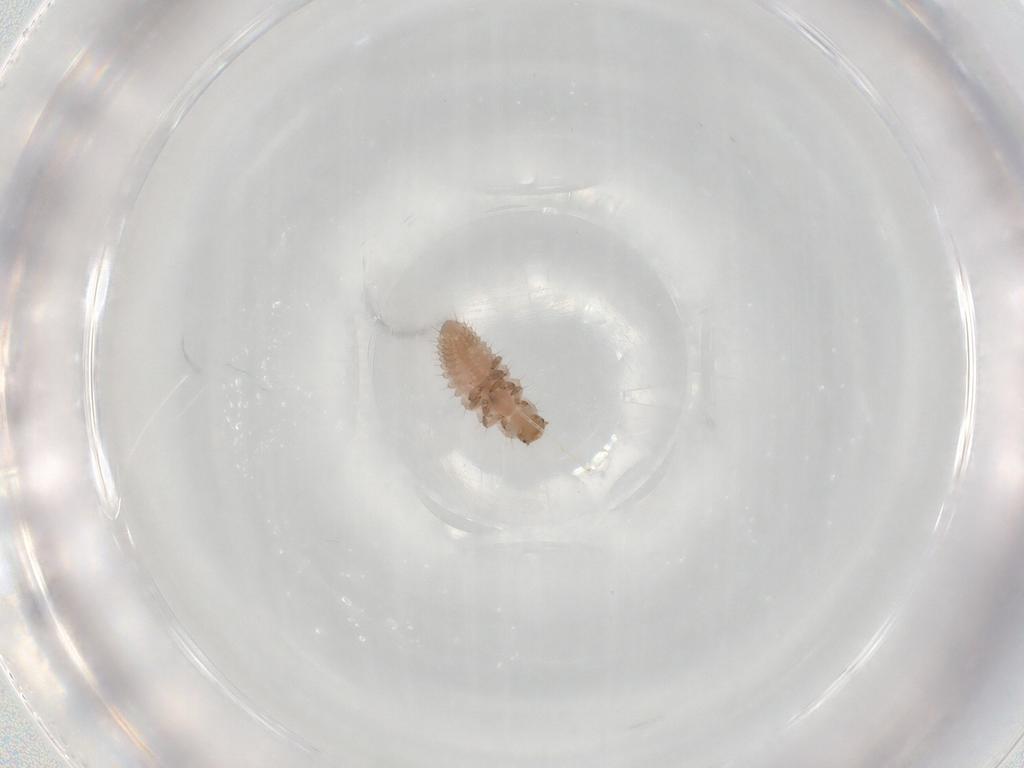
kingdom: Animalia
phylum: Arthropoda
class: Insecta
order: Coleoptera
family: Coccinellidae
